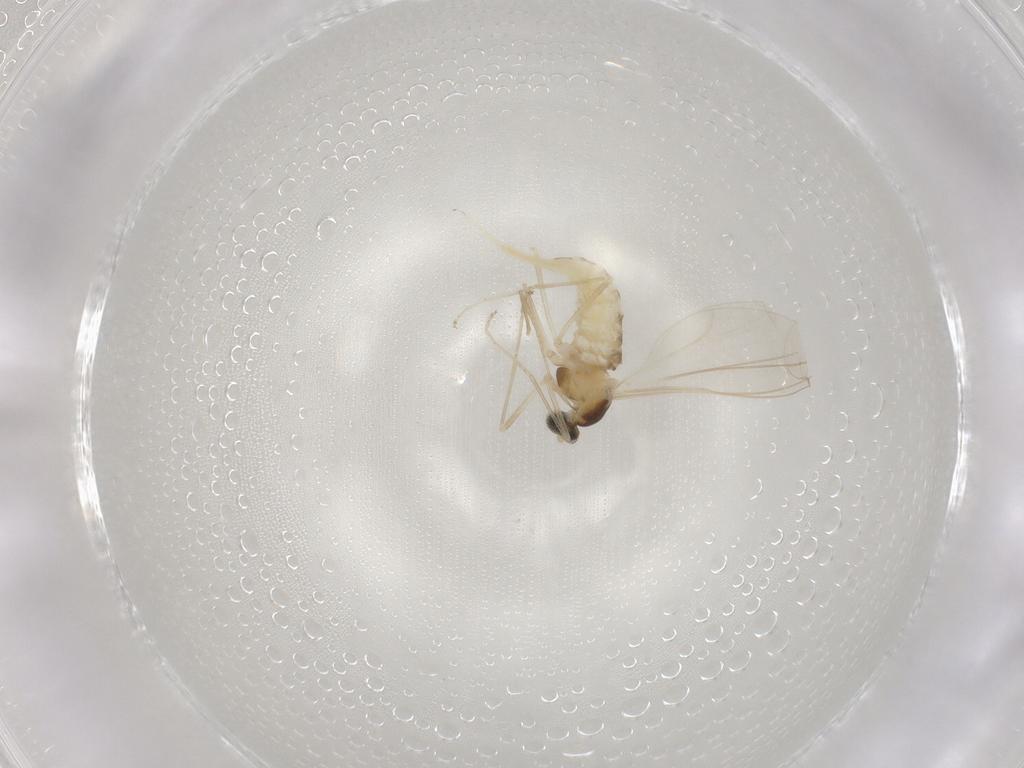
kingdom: Animalia
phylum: Arthropoda
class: Insecta
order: Diptera
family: Cecidomyiidae
